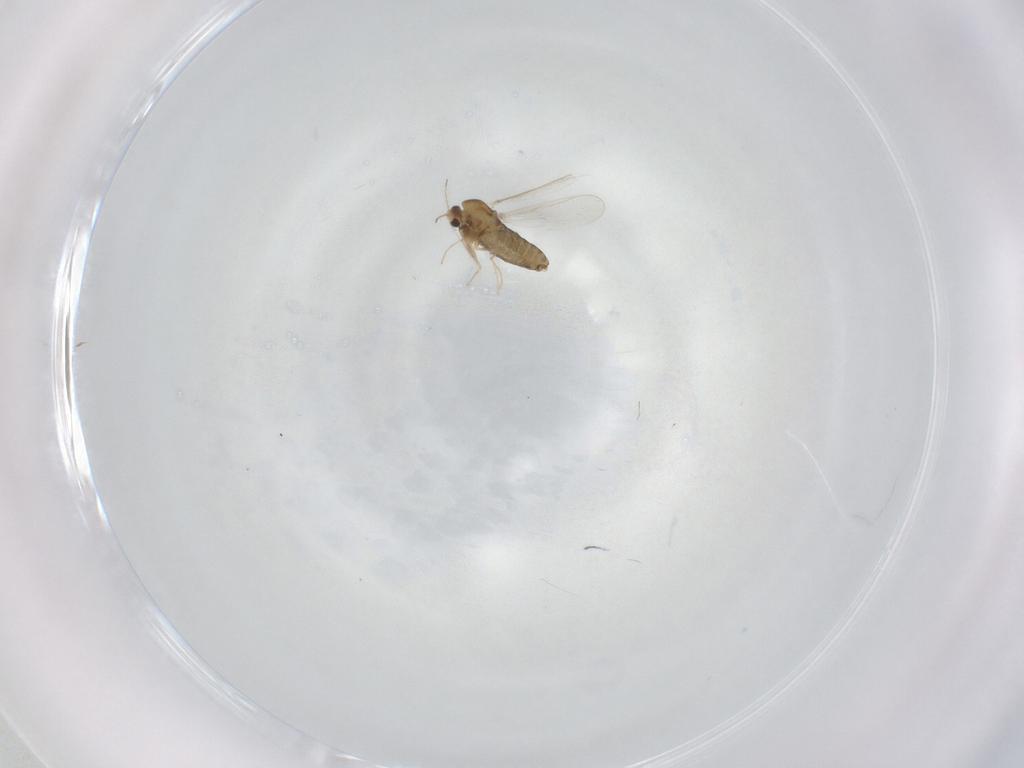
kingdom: Animalia
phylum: Arthropoda
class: Insecta
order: Diptera
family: Chironomidae
